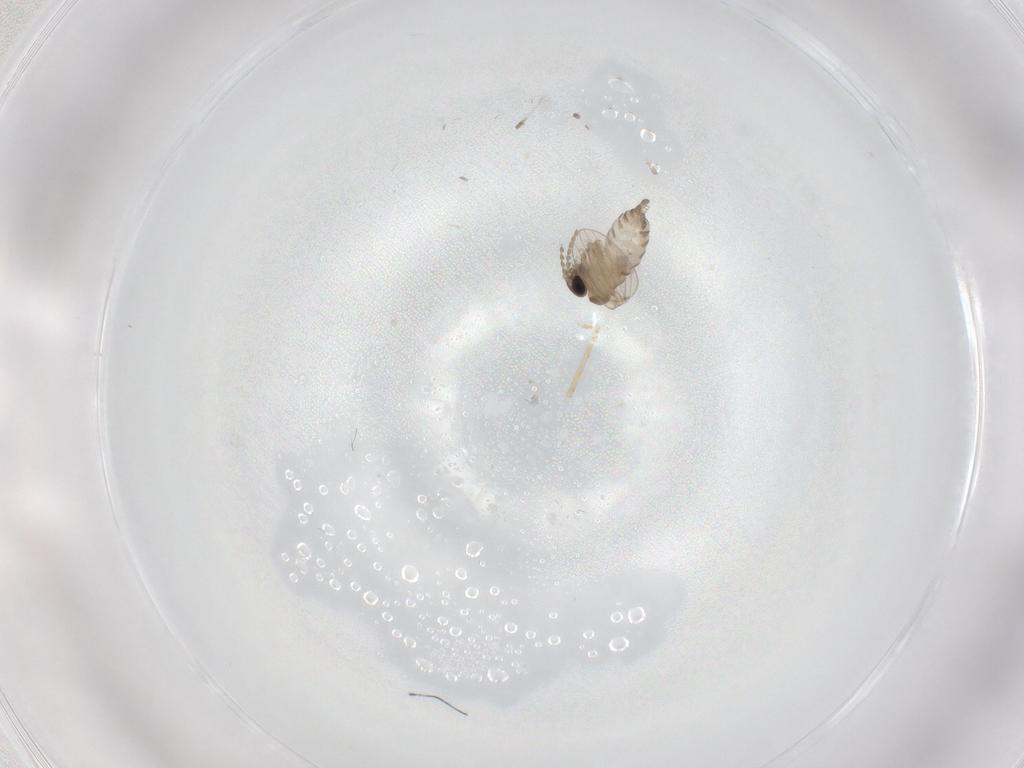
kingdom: Animalia
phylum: Arthropoda
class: Insecta
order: Diptera
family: Psychodidae
